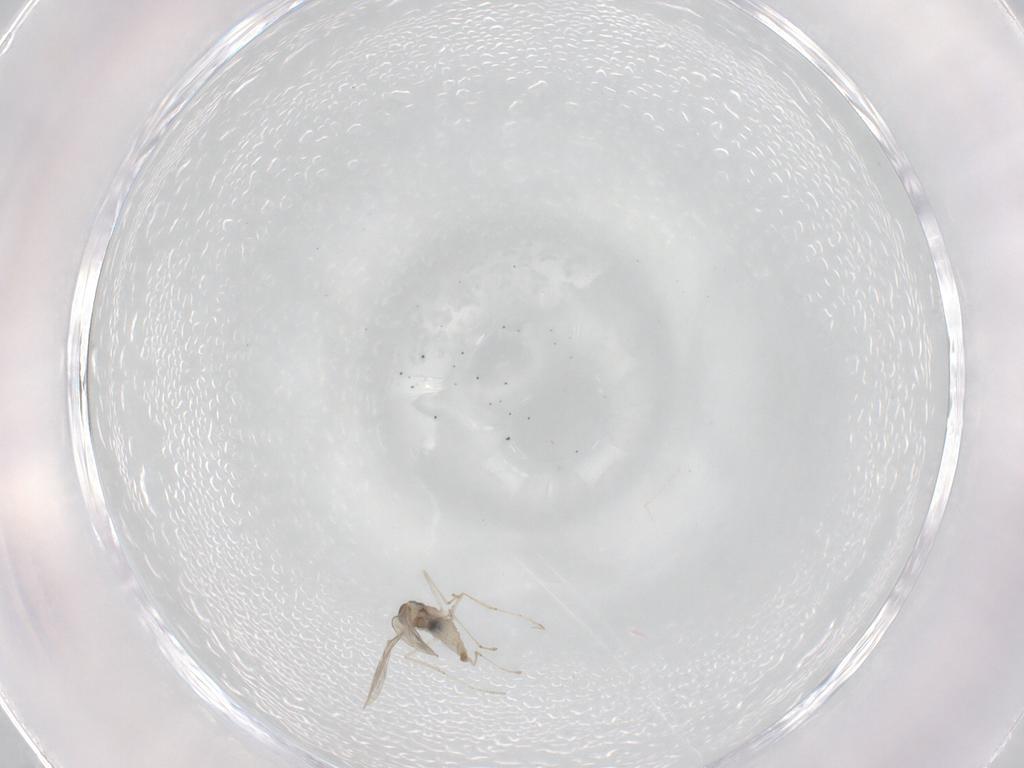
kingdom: Animalia
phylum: Arthropoda
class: Insecta
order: Diptera
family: Cecidomyiidae
